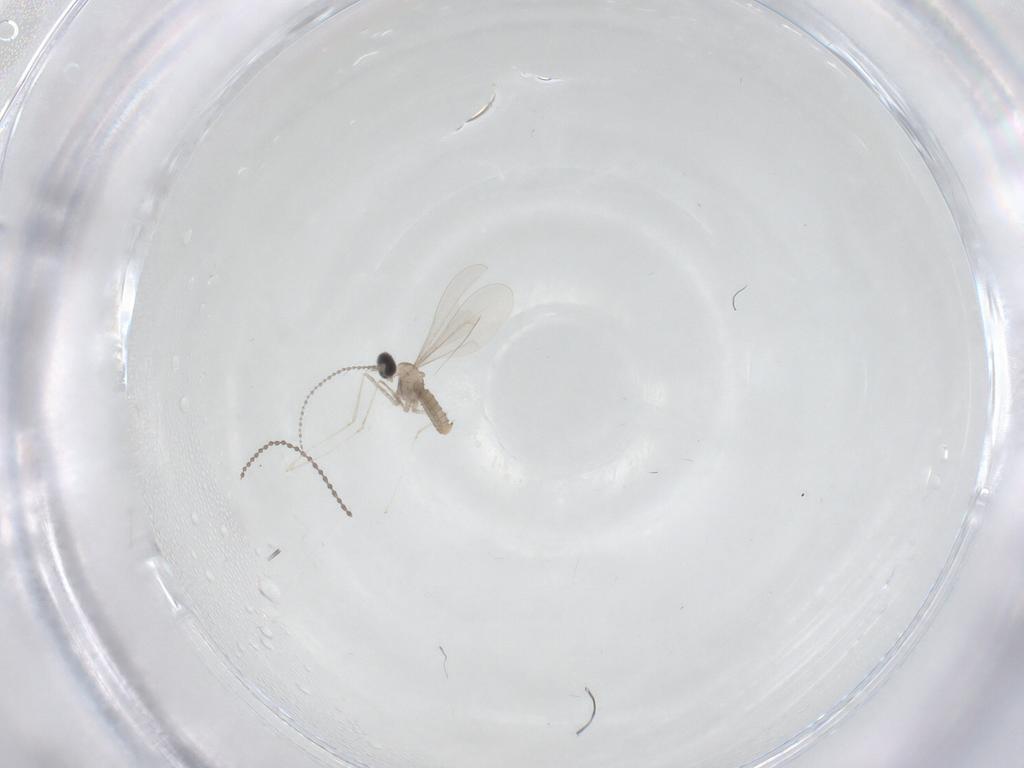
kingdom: Animalia
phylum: Arthropoda
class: Insecta
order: Diptera
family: Cecidomyiidae
